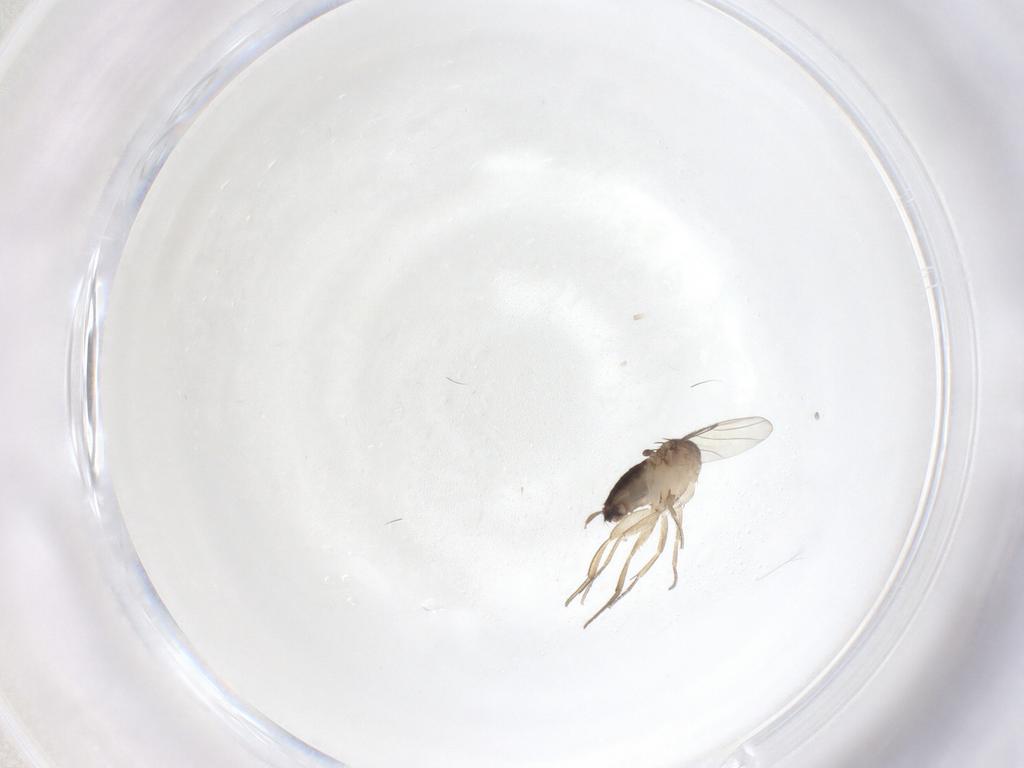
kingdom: Animalia
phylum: Arthropoda
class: Insecta
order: Diptera
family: Phoridae
